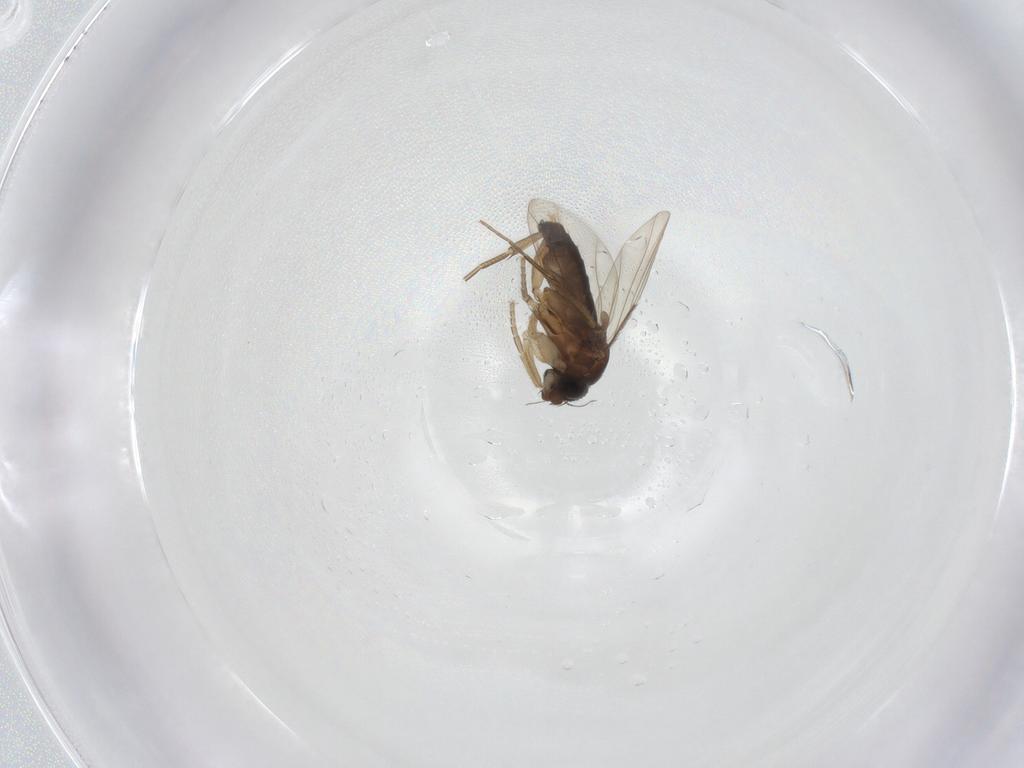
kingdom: Animalia
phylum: Arthropoda
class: Insecta
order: Diptera
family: Phoridae
